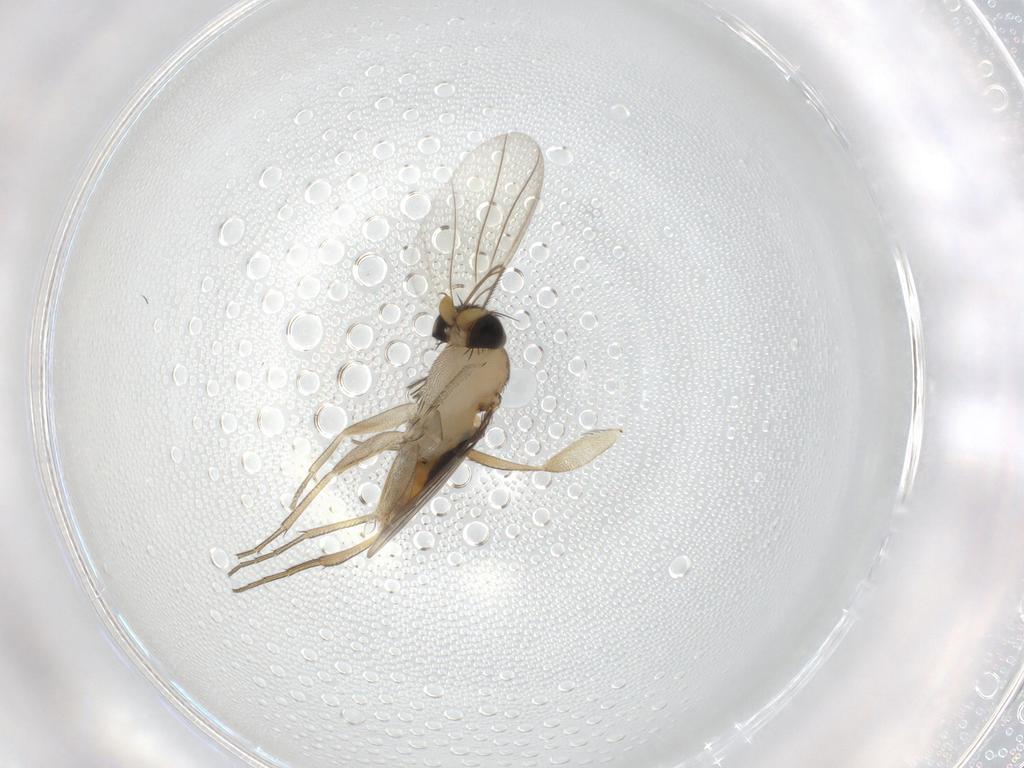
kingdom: Animalia
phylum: Arthropoda
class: Insecta
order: Diptera
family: Phoridae
